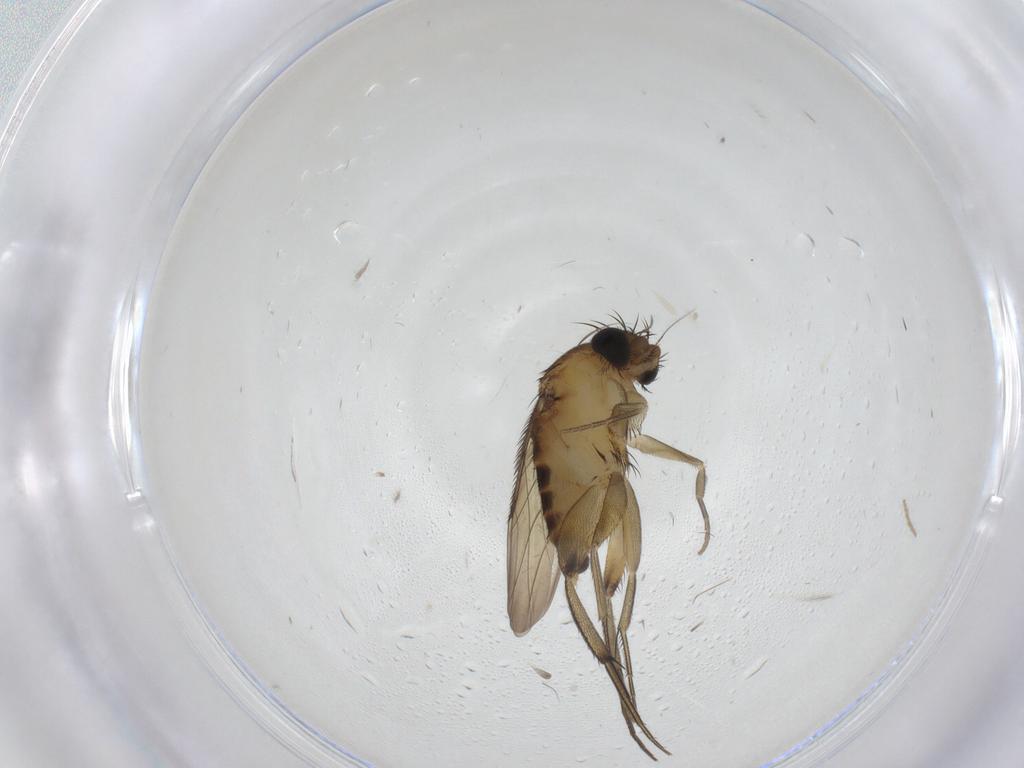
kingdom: Animalia
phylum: Arthropoda
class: Insecta
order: Diptera
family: Phoridae
